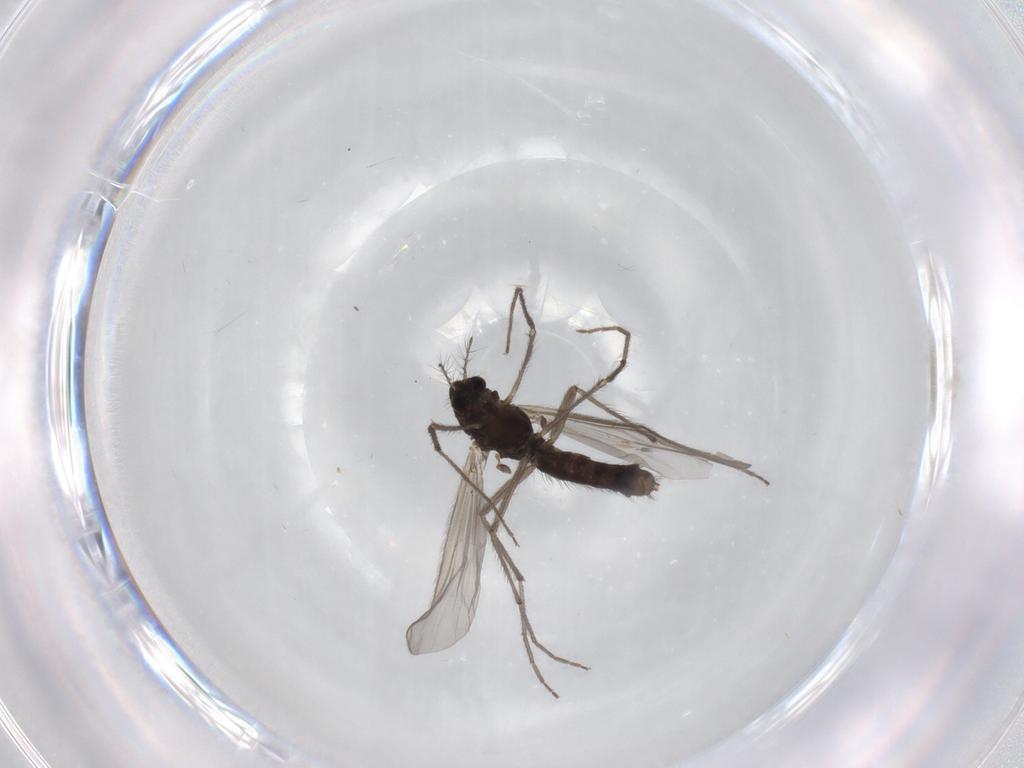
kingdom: Animalia
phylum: Arthropoda
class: Insecta
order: Diptera
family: Chironomidae
